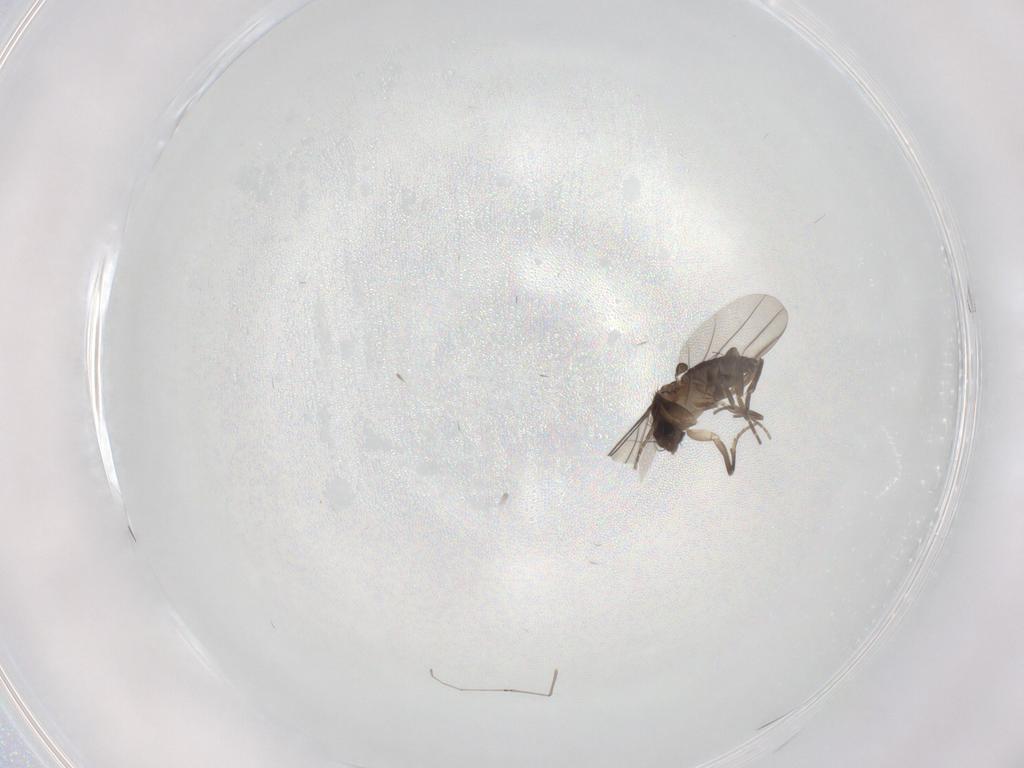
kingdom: Animalia
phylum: Arthropoda
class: Insecta
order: Diptera
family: Phoridae
